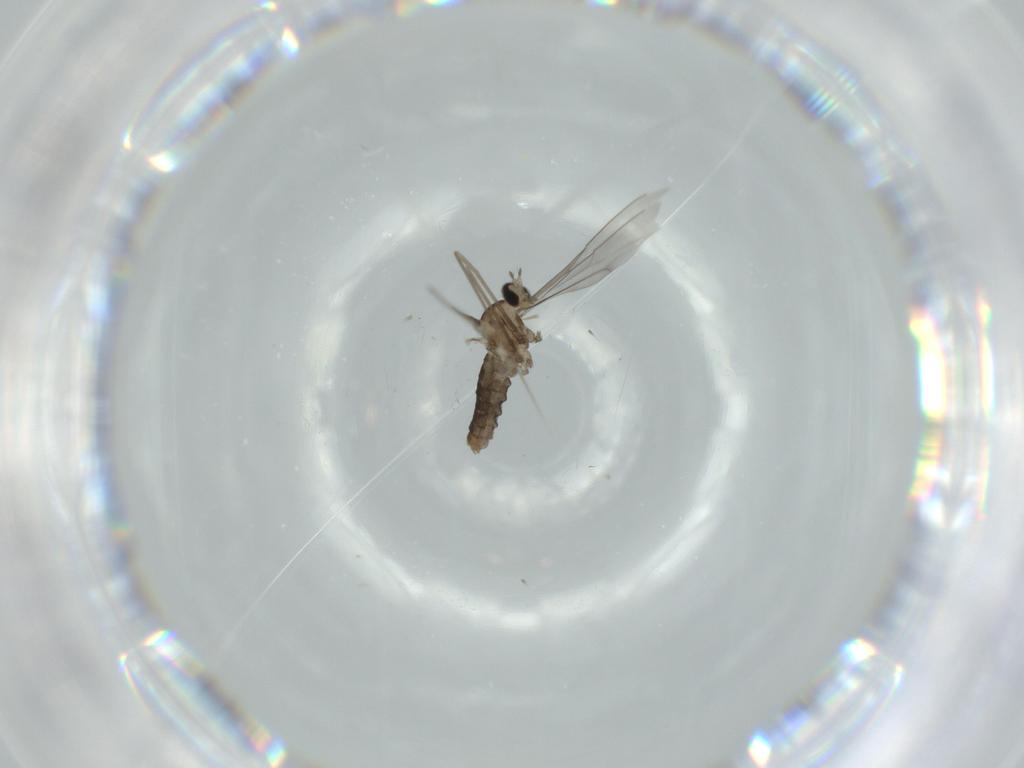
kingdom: Animalia
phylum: Arthropoda
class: Insecta
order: Diptera
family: Cecidomyiidae
